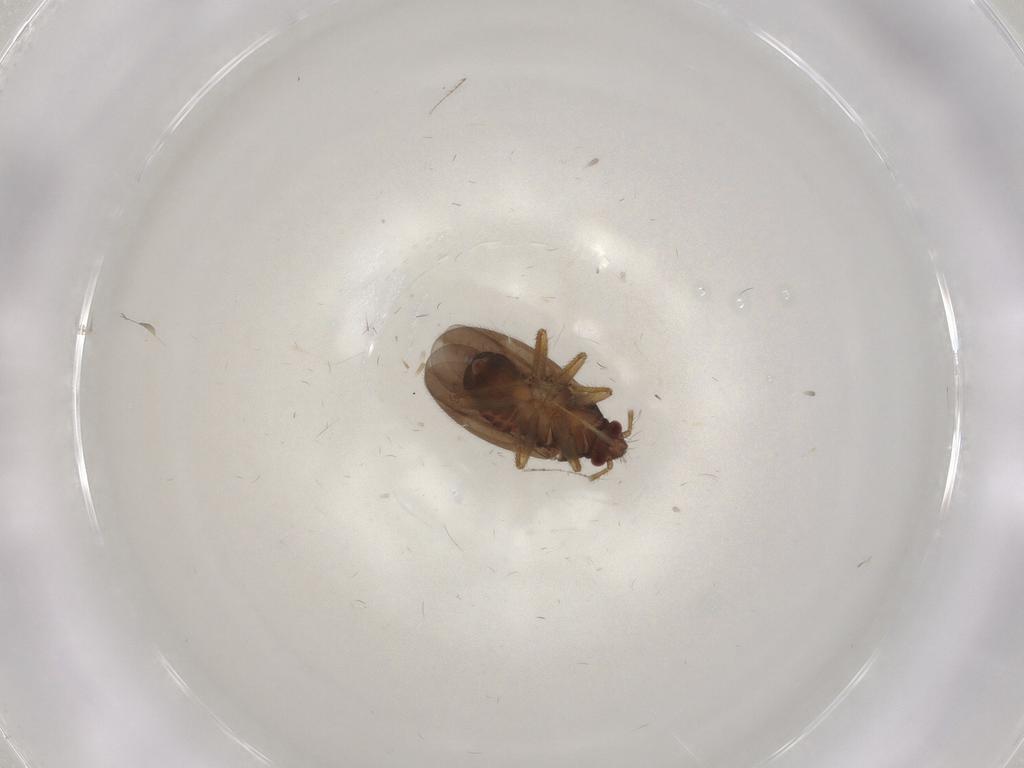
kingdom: Animalia
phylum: Arthropoda
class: Insecta
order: Hemiptera
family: Ceratocombidae
